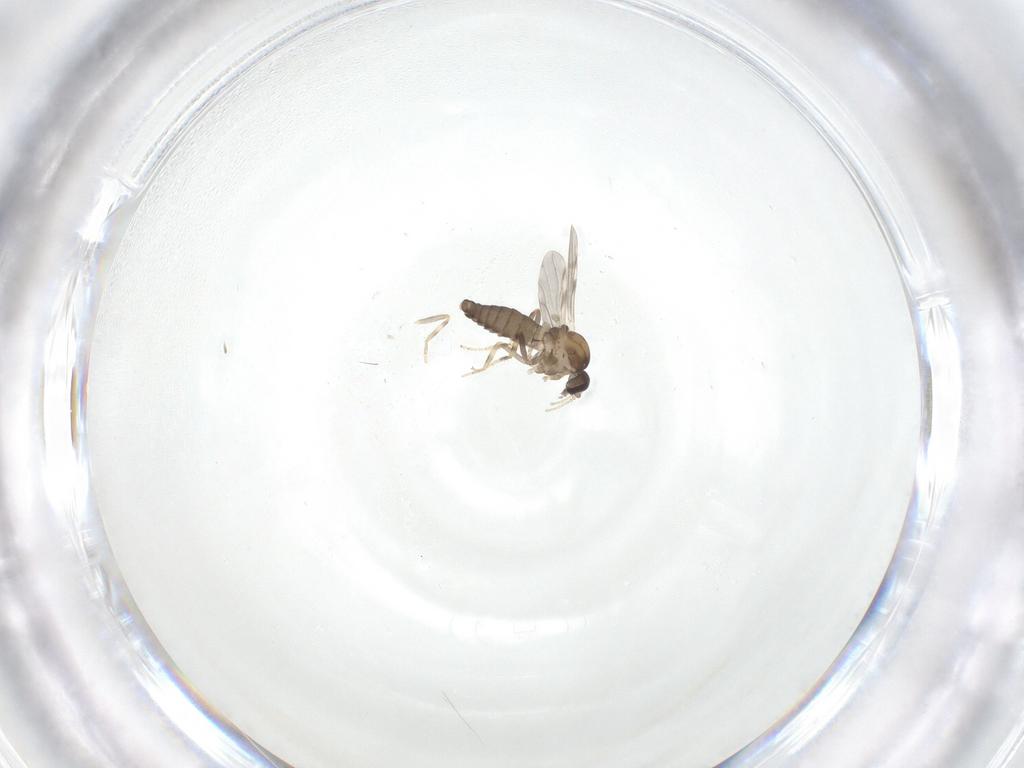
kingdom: Animalia
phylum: Arthropoda
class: Insecta
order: Diptera
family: Ceratopogonidae
